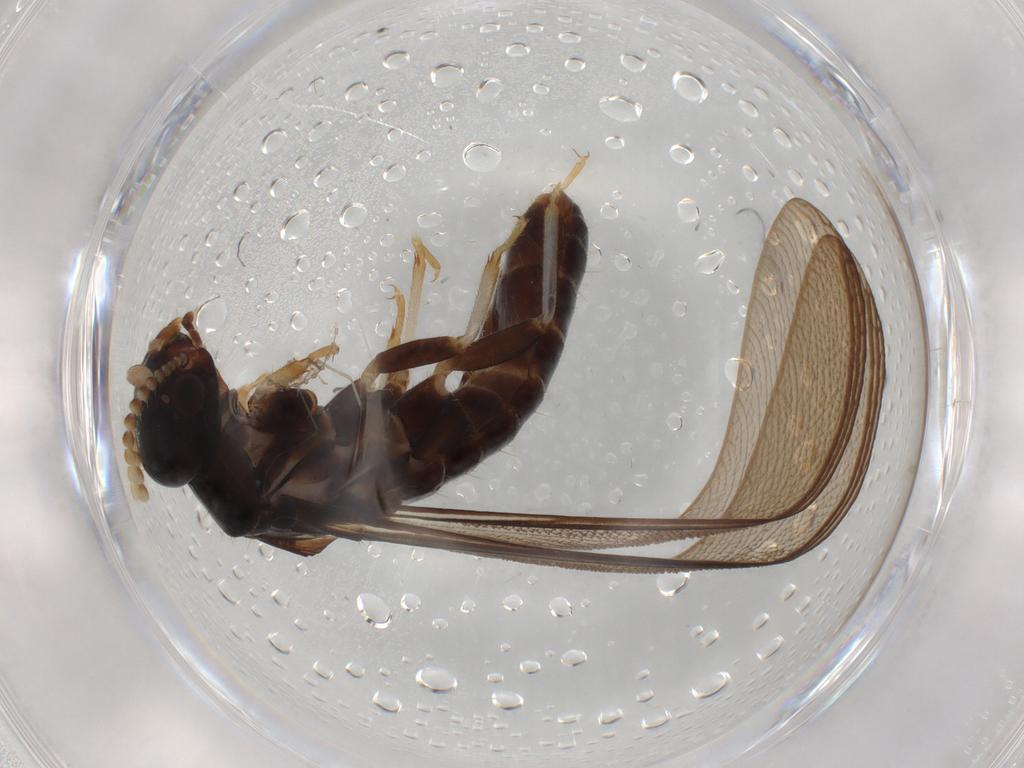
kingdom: Animalia
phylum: Arthropoda
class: Insecta
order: Blattodea
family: Kalotermitidae
